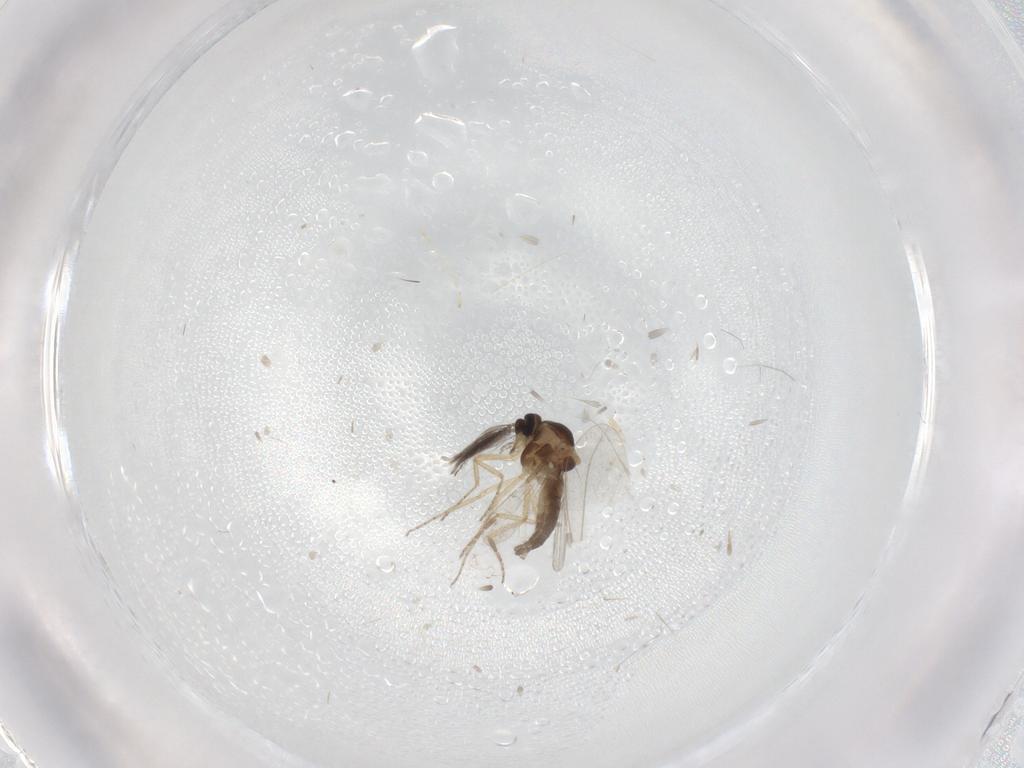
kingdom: Animalia
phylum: Arthropoda
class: Insecta
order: Diptera
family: Ceratopogonidae
